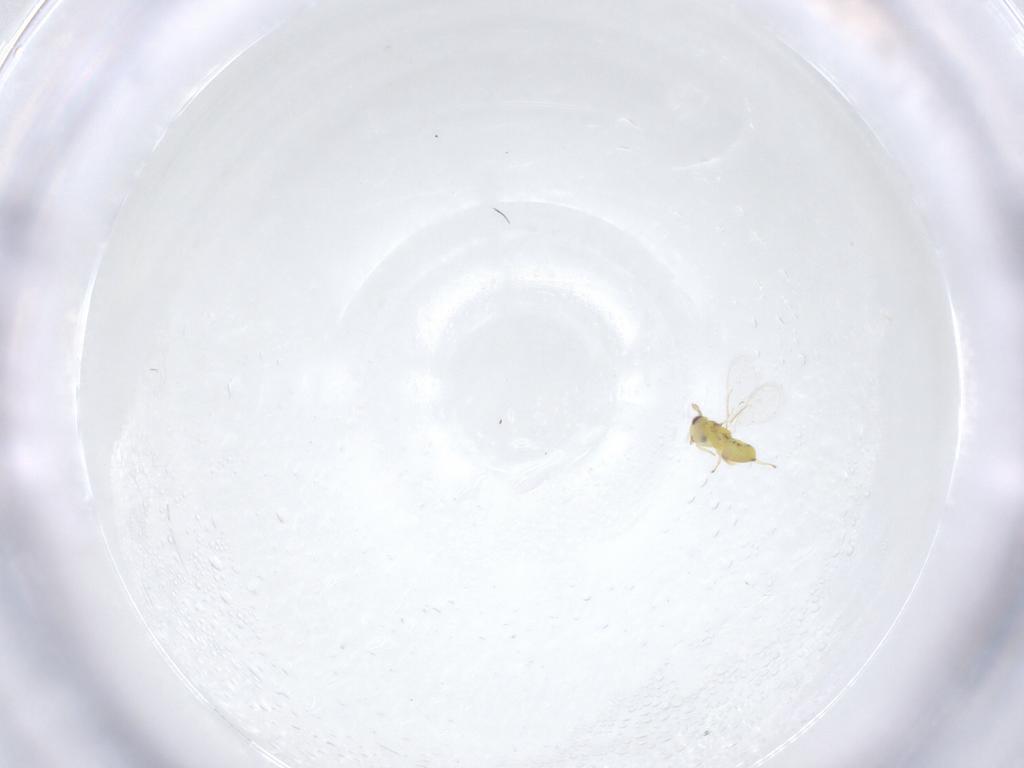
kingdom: Animalia
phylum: Arthropoda
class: Insecta
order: Hymenoptera
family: Eulophidae
